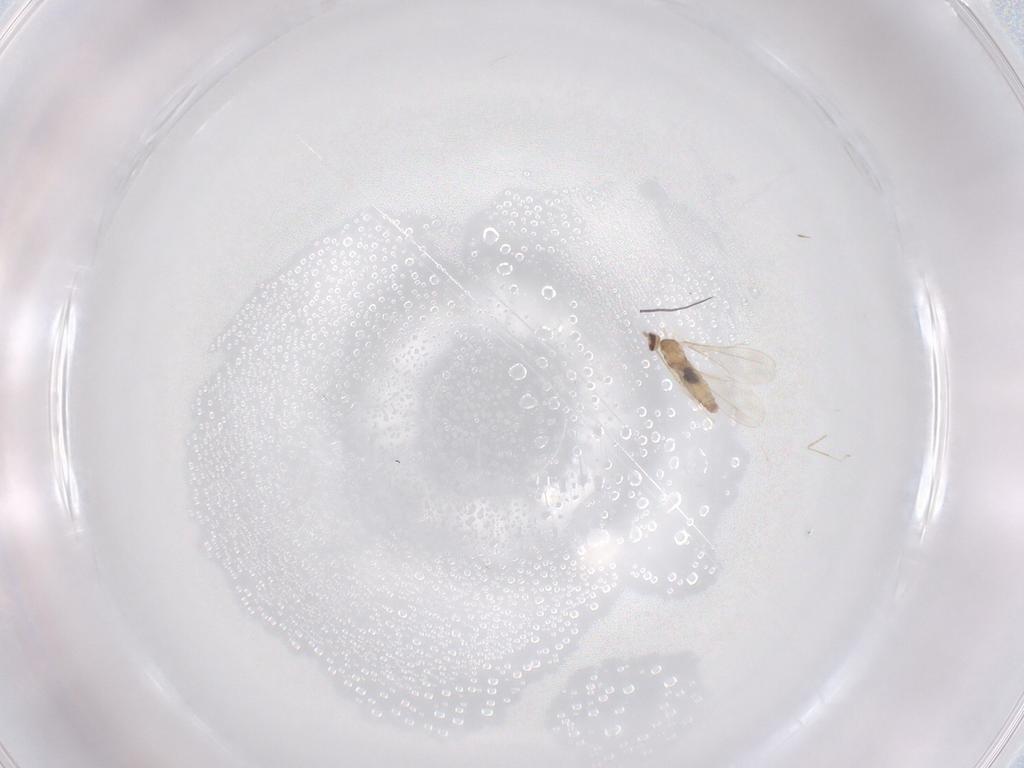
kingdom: Animalia
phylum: Arthropoda
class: Insecta
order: Diptera
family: Cecidomyiidae
